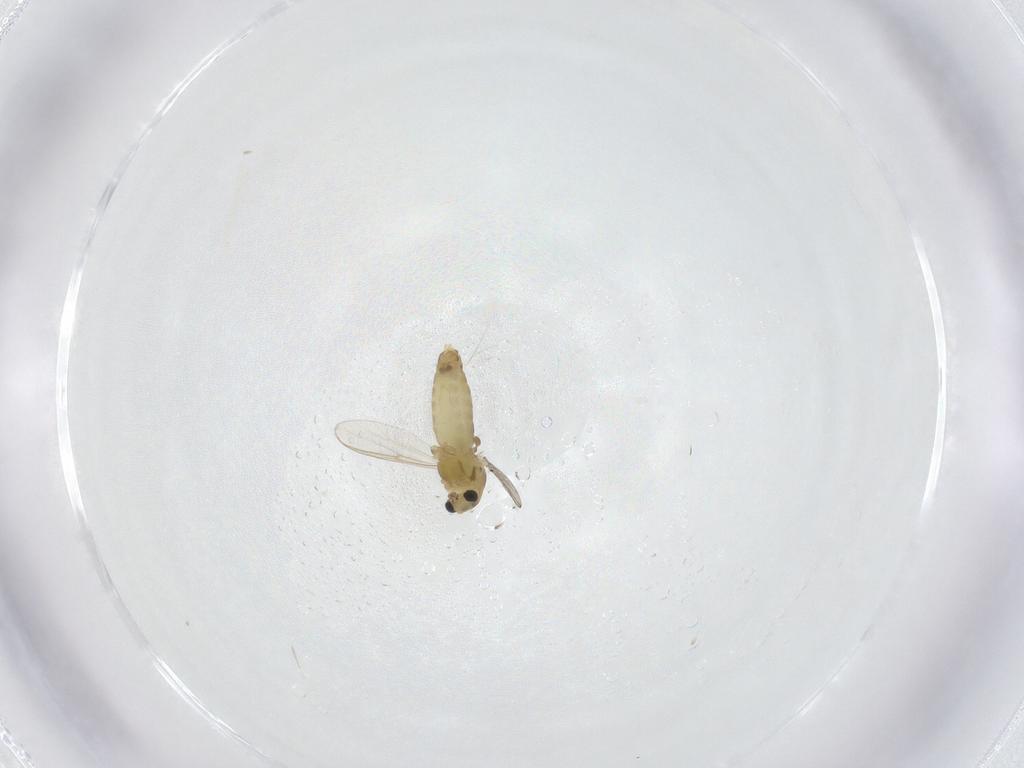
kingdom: Animalia
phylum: Arthropoda
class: Insecta
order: Diptera
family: Chironomidae
